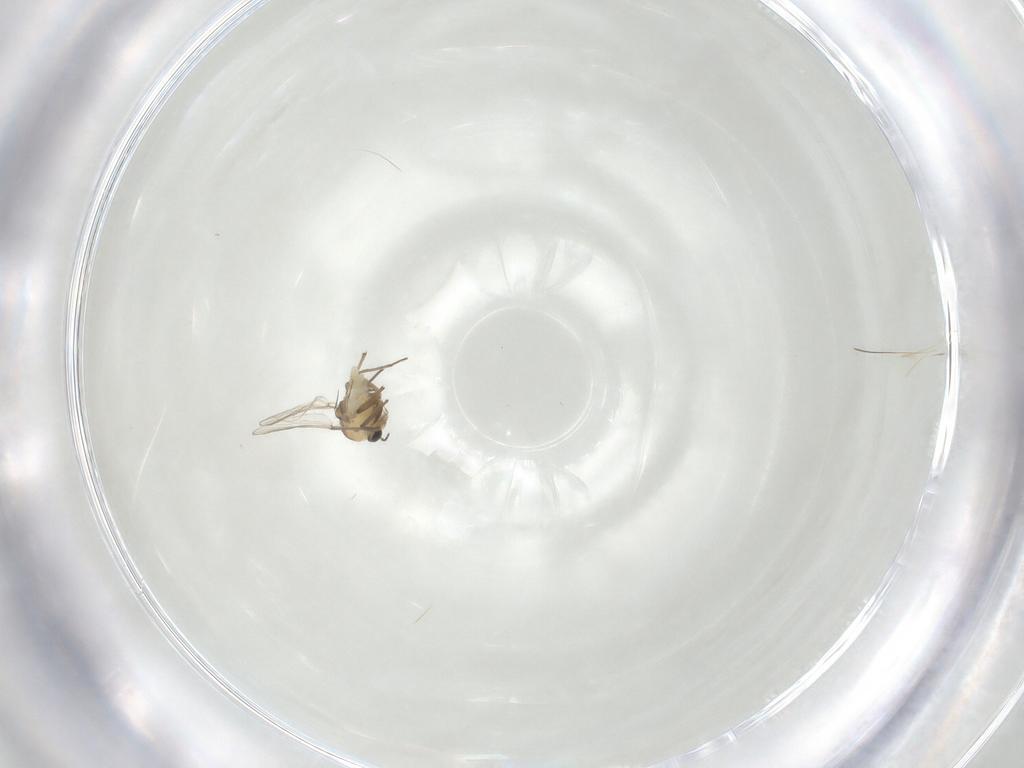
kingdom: Animalia
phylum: Arthropoda
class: Insecta
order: Diptera
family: Chironomidae
